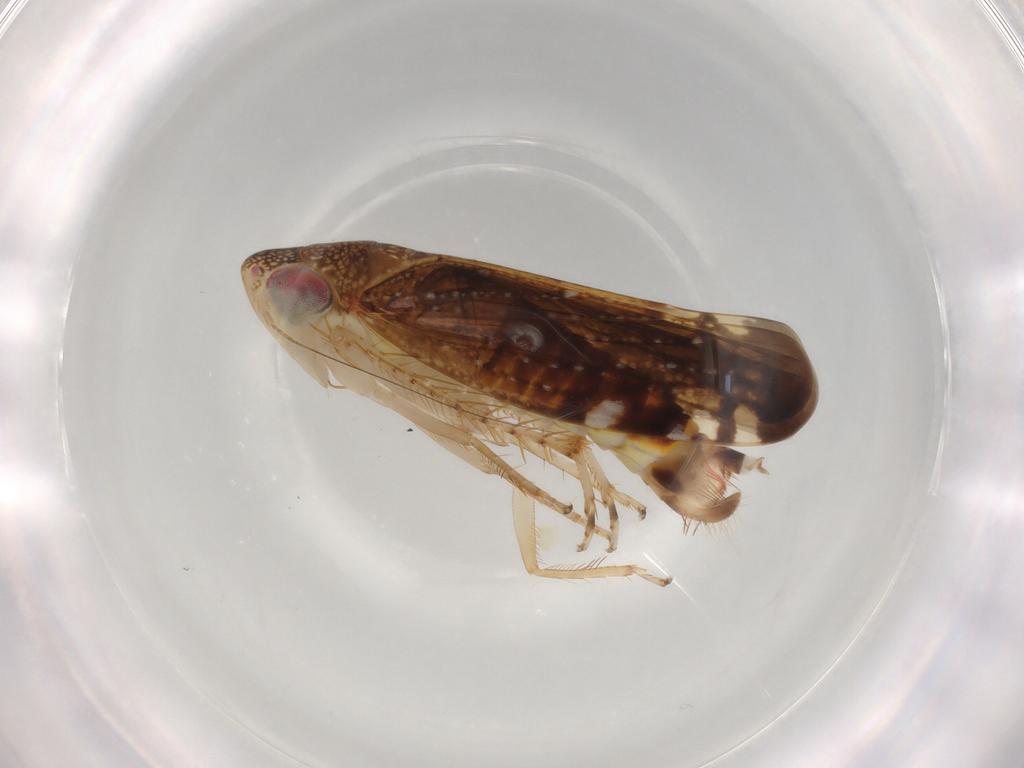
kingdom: Animalia
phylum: Arthropoda
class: Insecta
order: Hemiptera
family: Cicadellidae
